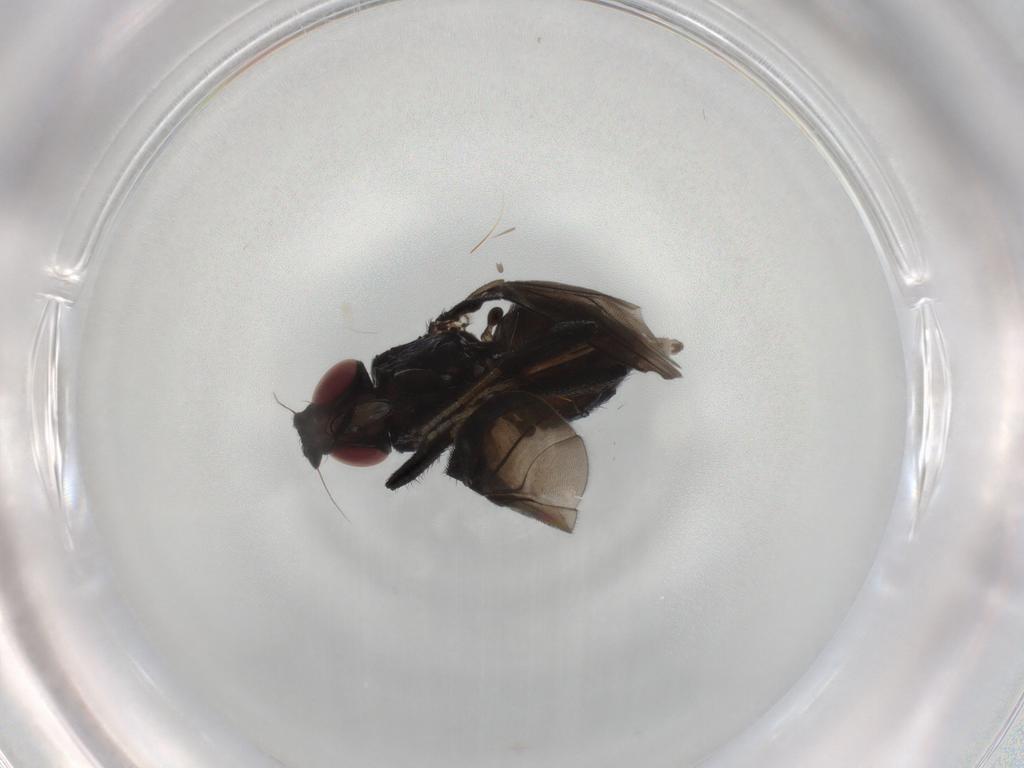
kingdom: Animalia
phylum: Arthropoda
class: Insecta
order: Diptera
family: Milichiidae
